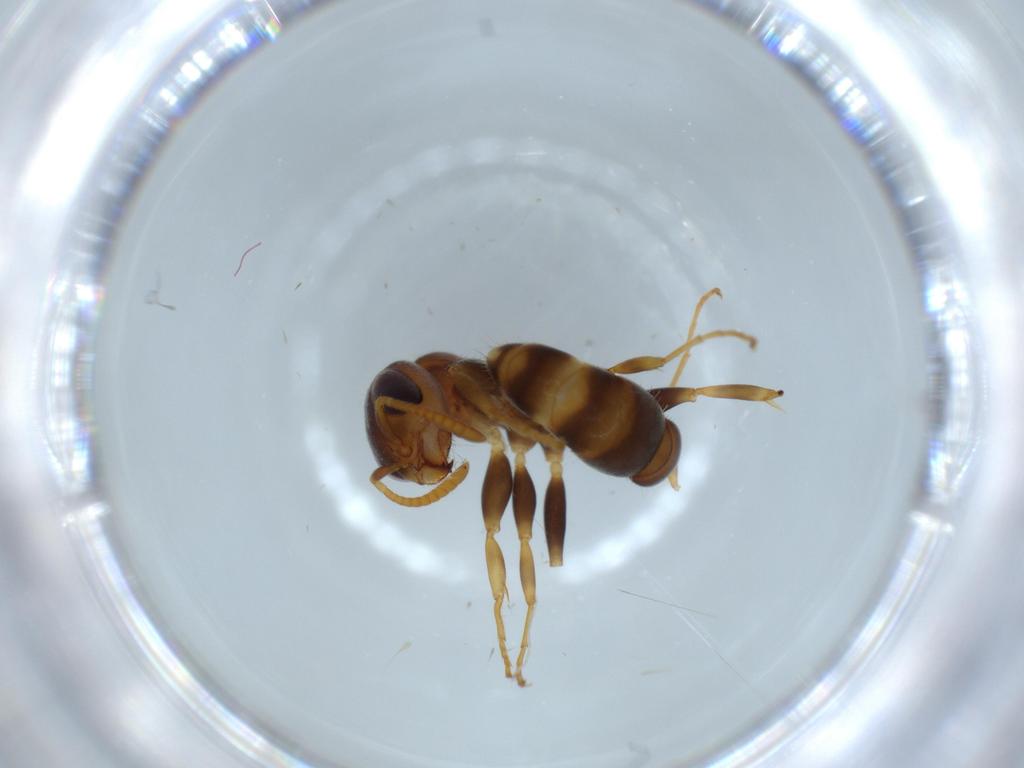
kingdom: Animalia
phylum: Arthropoda
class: Insecta
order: Hymenoptera
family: Formicidae
